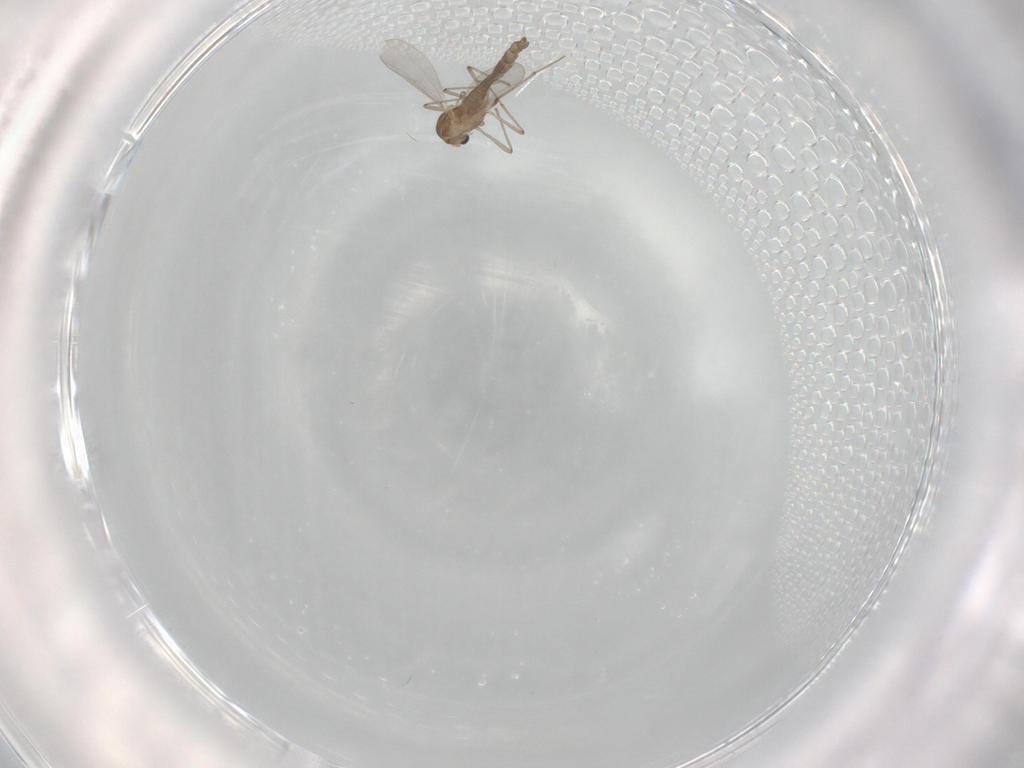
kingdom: Animalia
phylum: Arthropoda
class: Insecta
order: Diptera
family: Chironomidae
